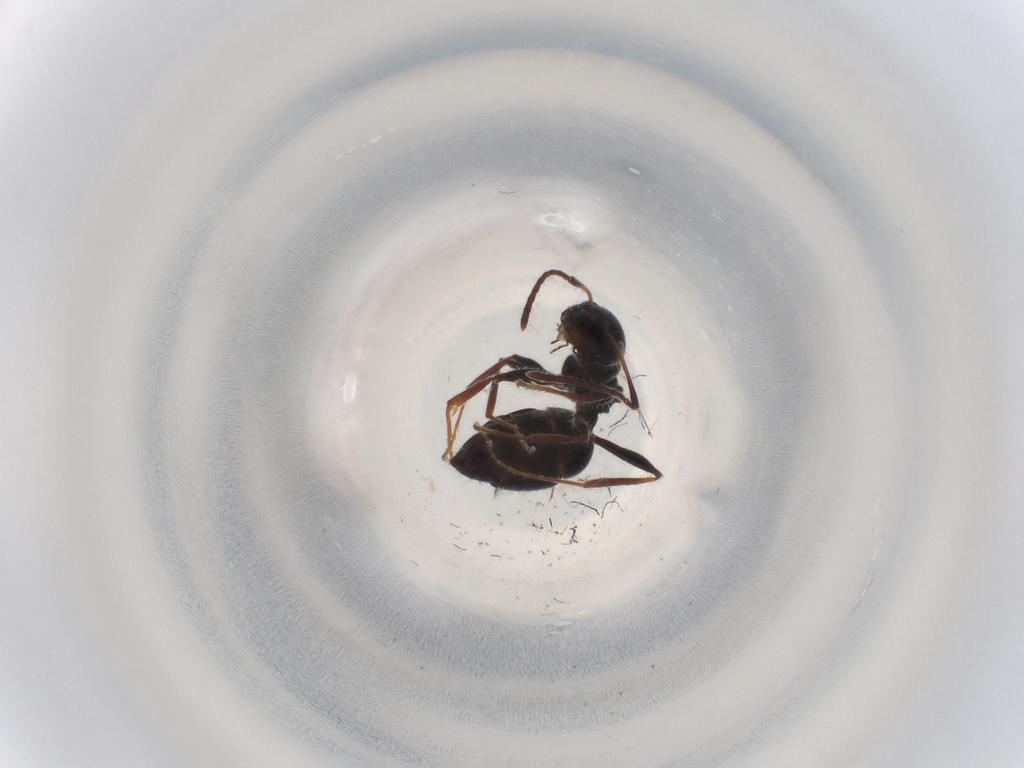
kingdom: Animalia
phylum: Arthropoda
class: Insecta
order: Hymenoptera
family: Formicidae
